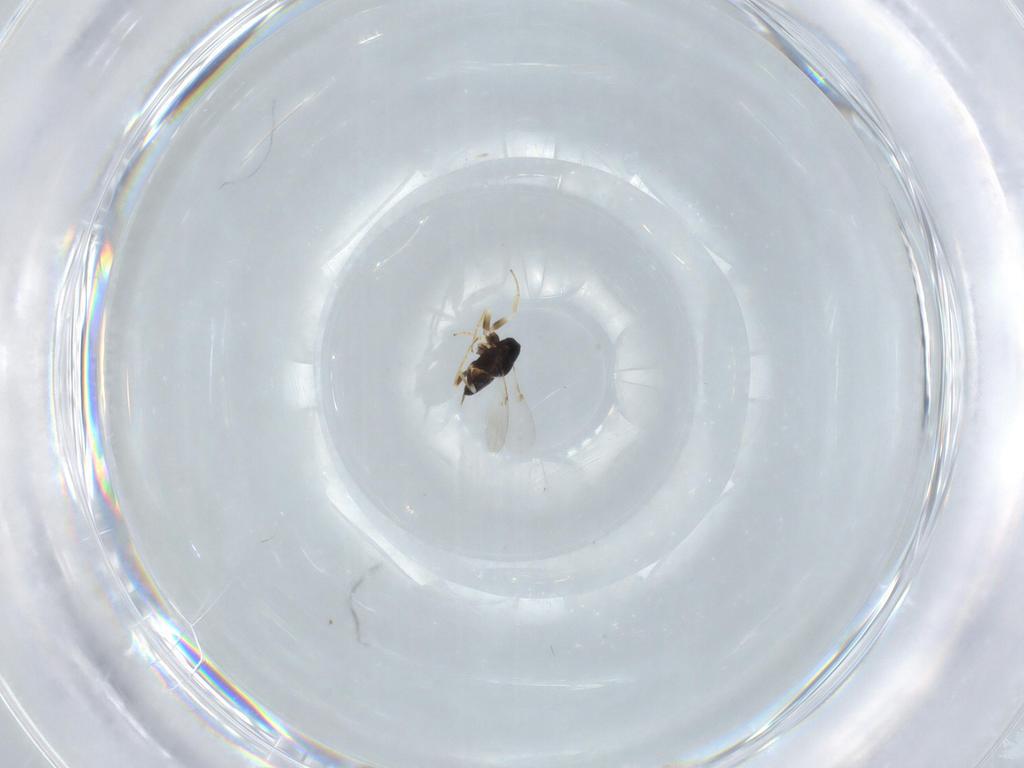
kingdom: Animalia
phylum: Arthropoda
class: Insecta
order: Hymenoptera
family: Encyrtidae
